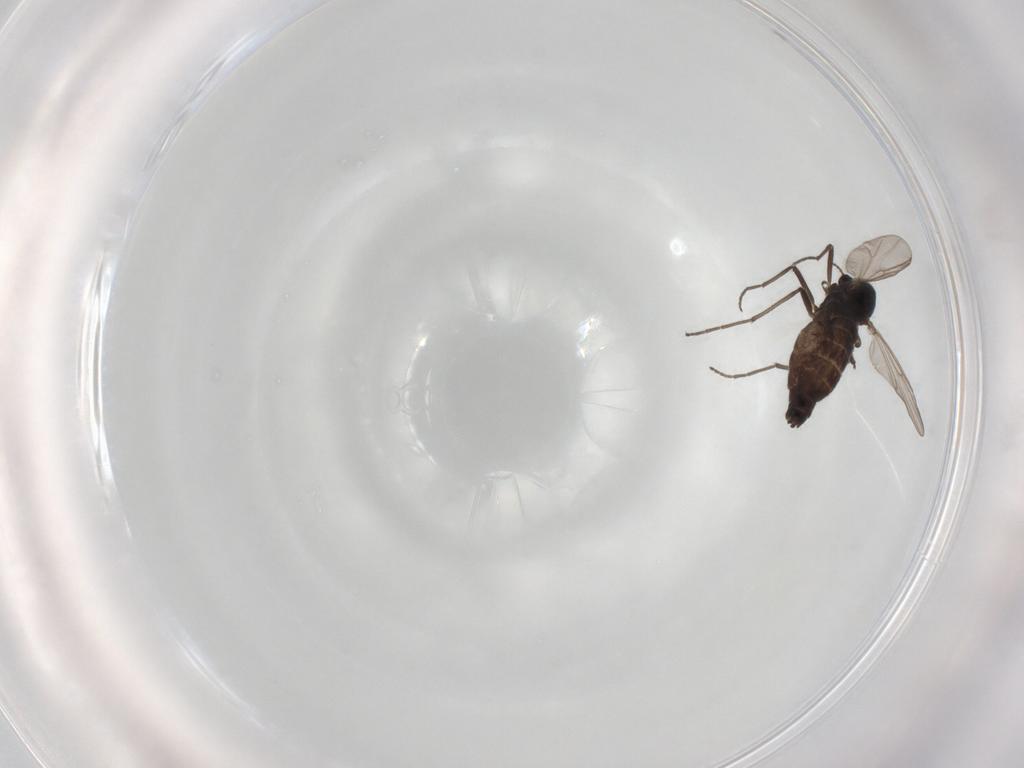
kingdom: Animalia
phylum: Arthropoda
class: Insecta
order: Diptera
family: Chironomidae
